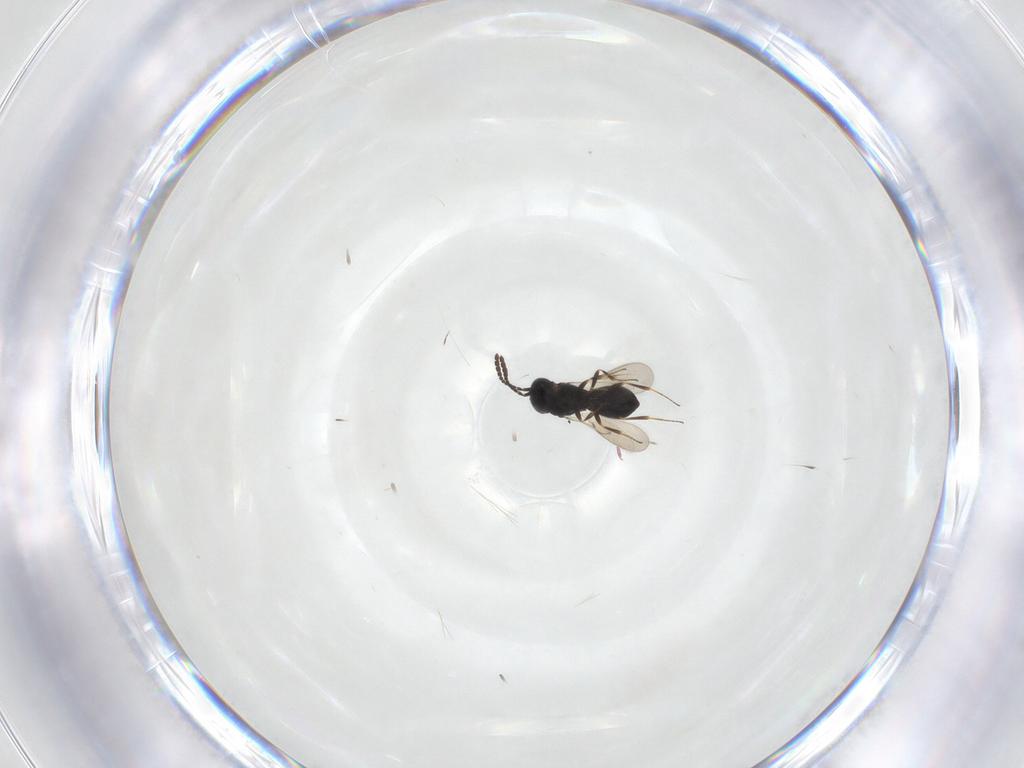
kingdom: Animalia
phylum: Arthropoda
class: Insecta
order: Hymenoptera
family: Scelionidae
